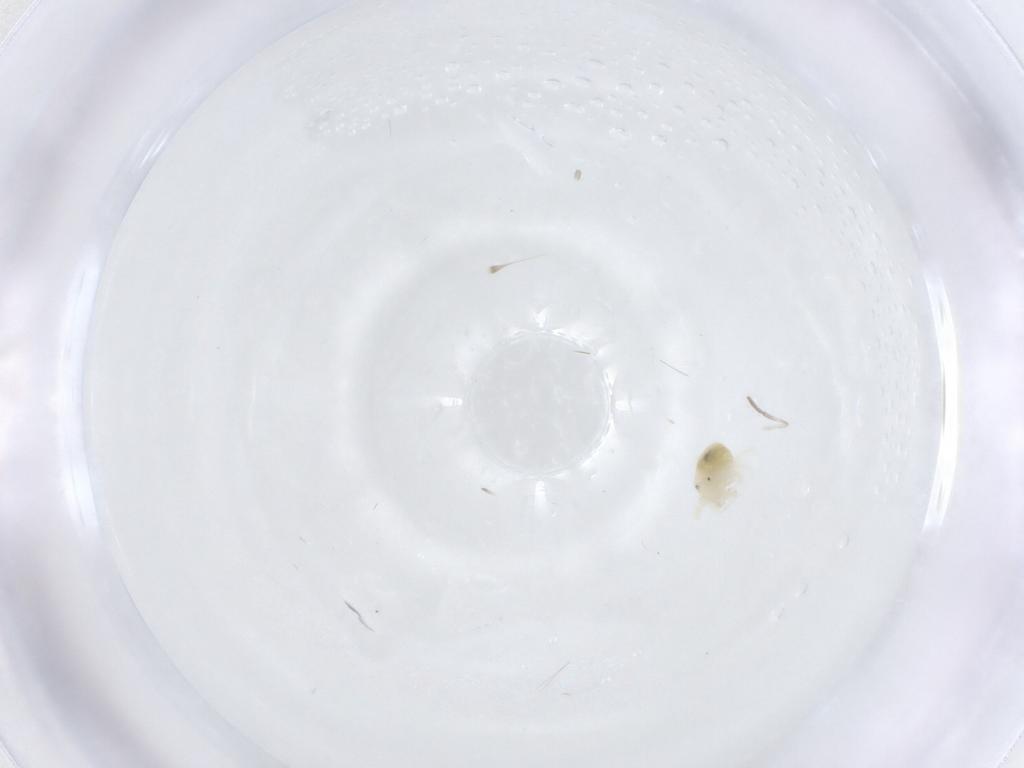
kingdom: Animalia
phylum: Arthropoda
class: Arachnida
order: Trombidiformes
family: Anystidae
